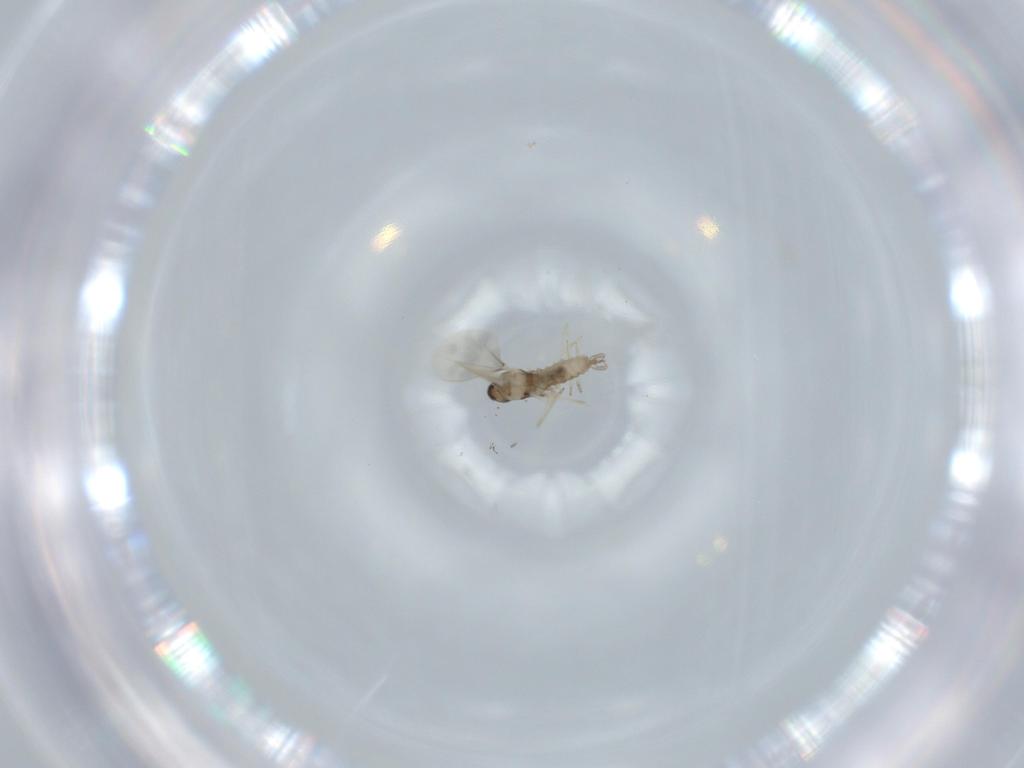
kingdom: Animalia
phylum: Arthropoda
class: Insecta
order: Diptera
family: Cecidomyiidae
